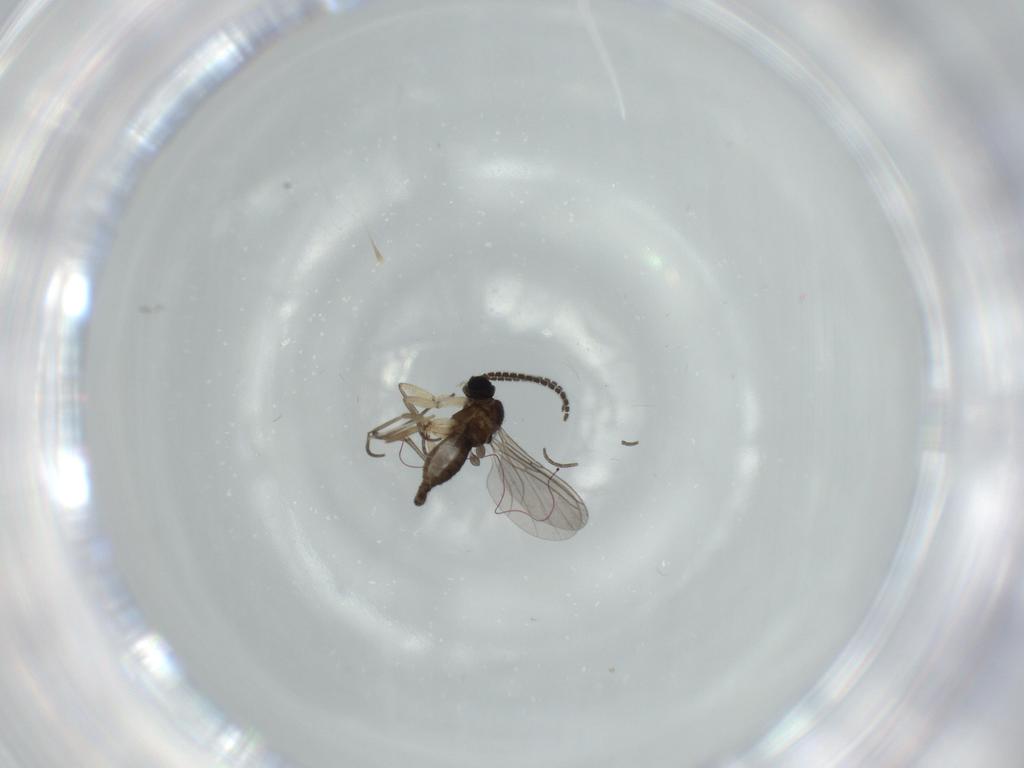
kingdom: Animalia
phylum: Arthropoda
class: Insecta
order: Diptera
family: Sciaridae
